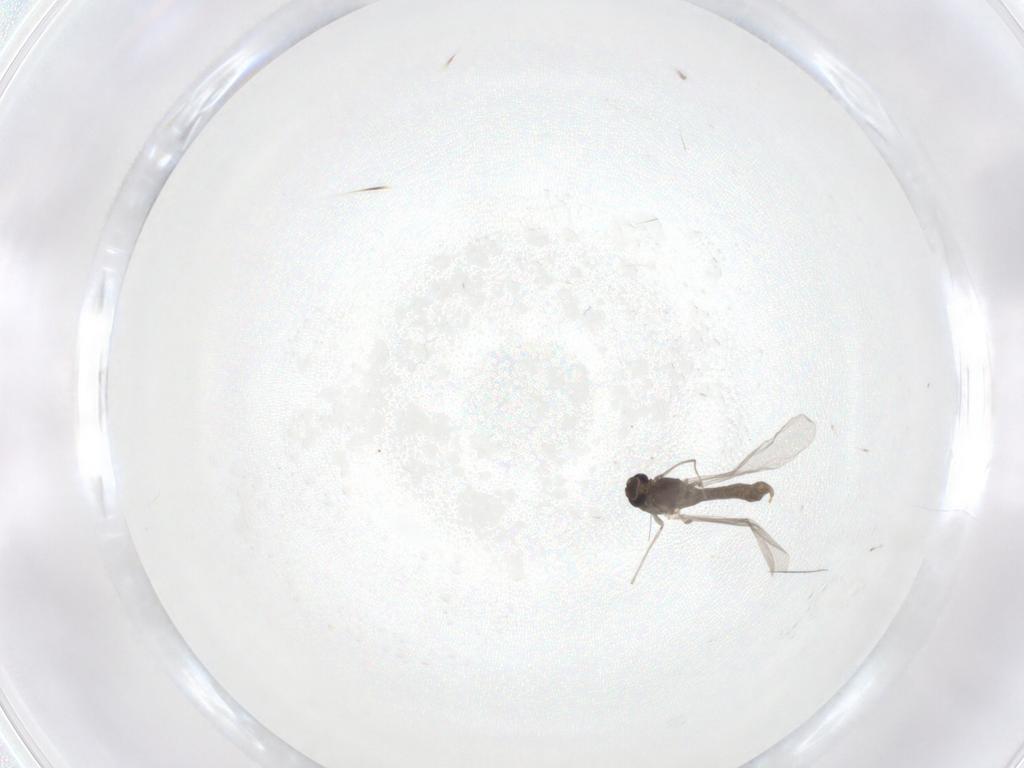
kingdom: Animalia
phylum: Arthropoda
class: Insecta
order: Diptera
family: Chironomidae
